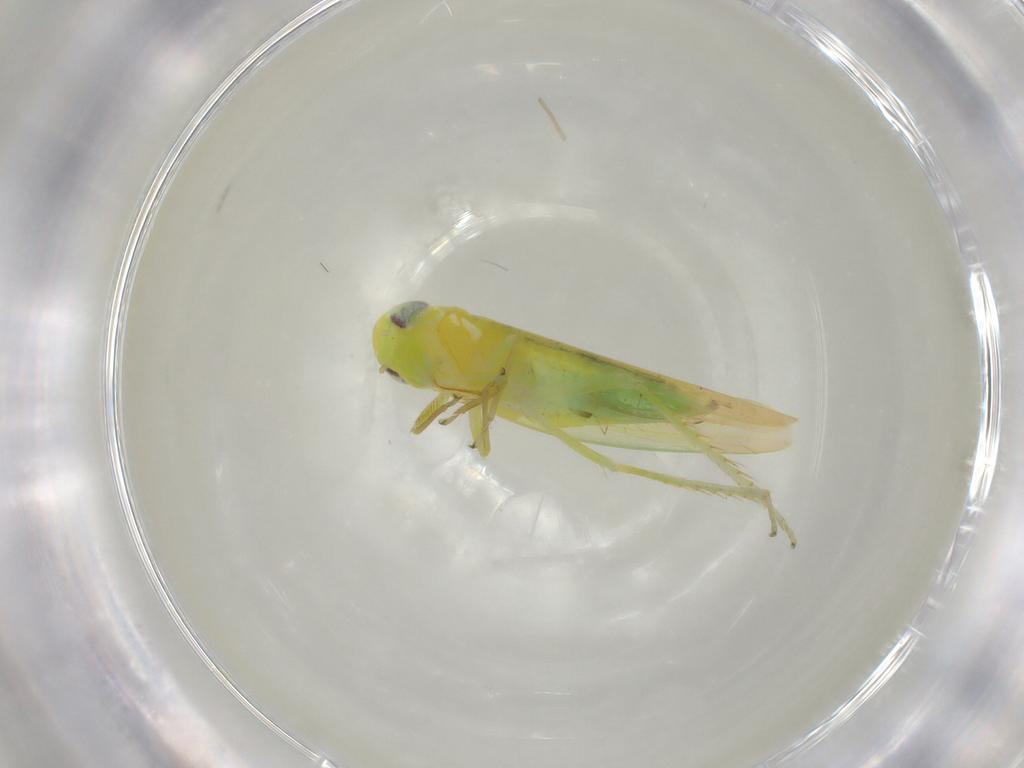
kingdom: Animalia
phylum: Arthropoda
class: Insecta
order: Hemiptera
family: Cicadellidae
